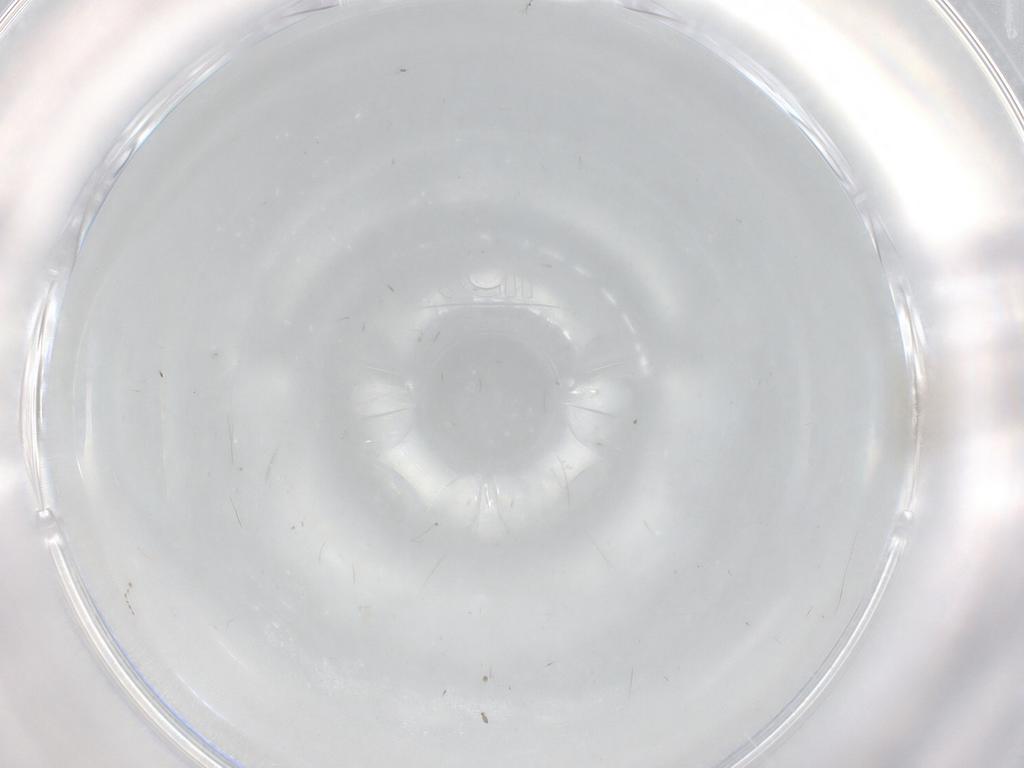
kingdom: Animalia
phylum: Arthropoda
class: Insecta
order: Diptera
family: Cecidomyiidae
